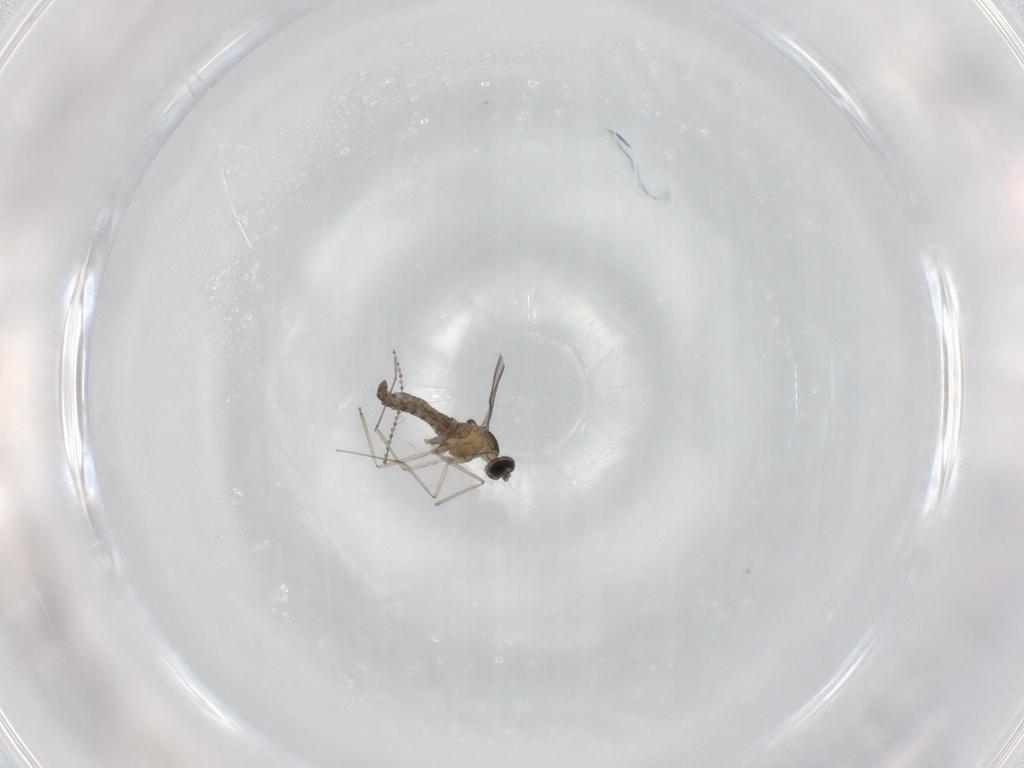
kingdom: Animalia
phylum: Arthropoda
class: Insecta
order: Diptera
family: Cecidomyiidae
